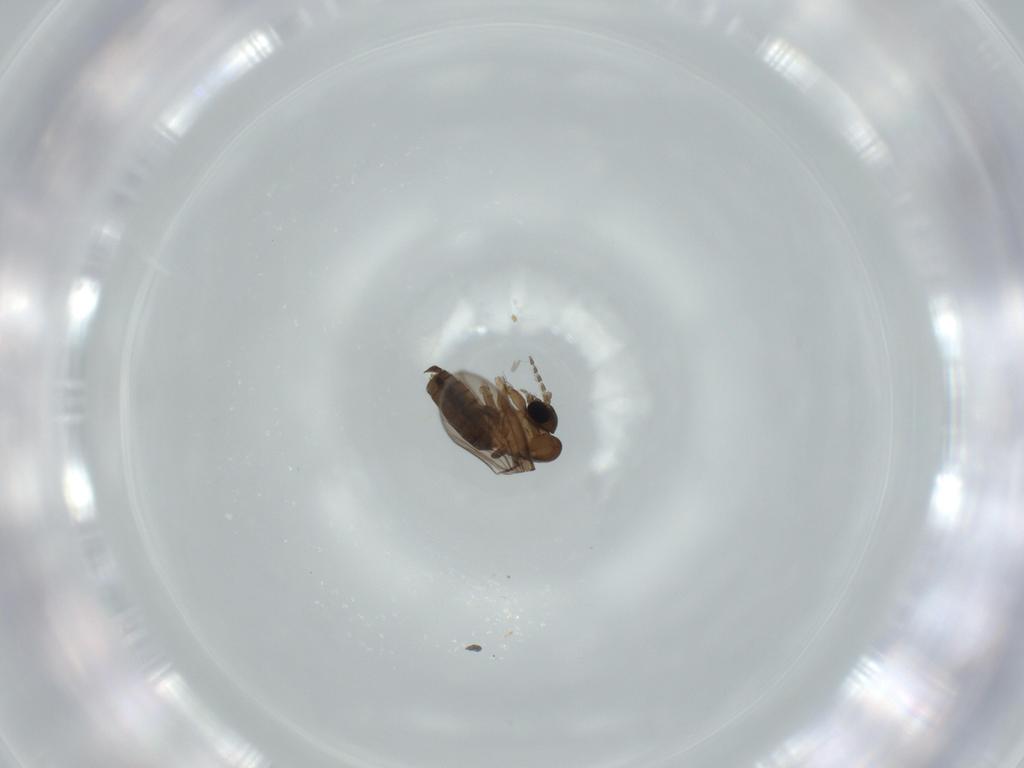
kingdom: Animalia
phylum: Arthropoda
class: Insecta
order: Diptera
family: Psychodidae
